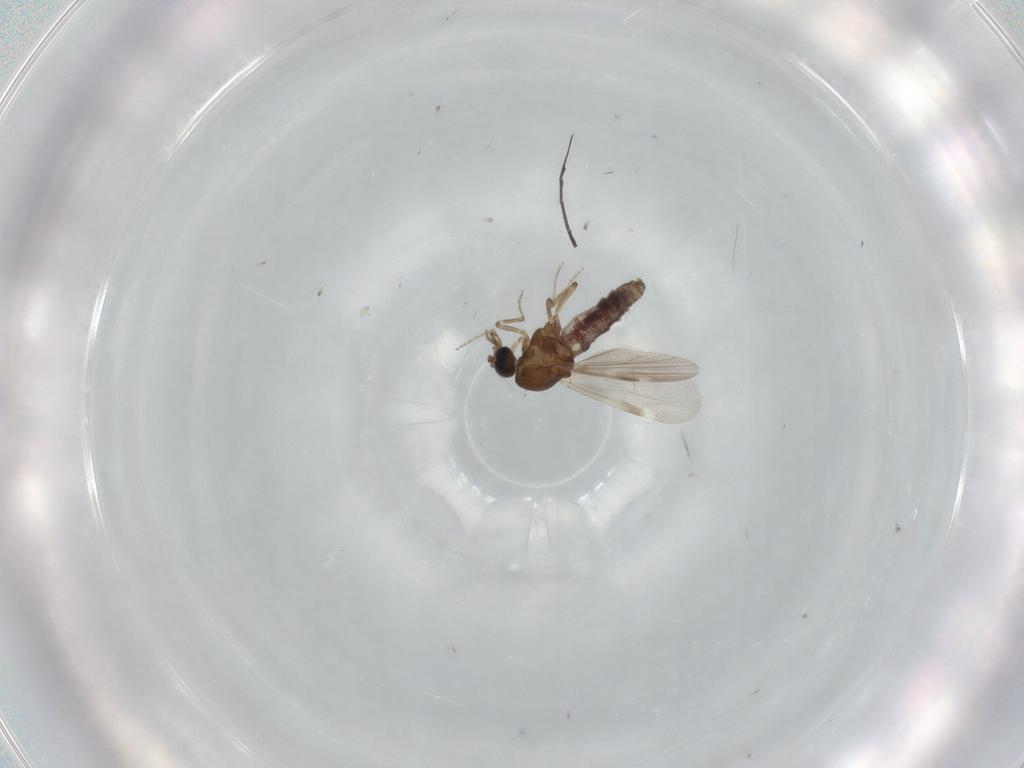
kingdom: Animalia
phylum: Arthropoda
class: Insecta
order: Diptera
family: Ceratopogonidae
